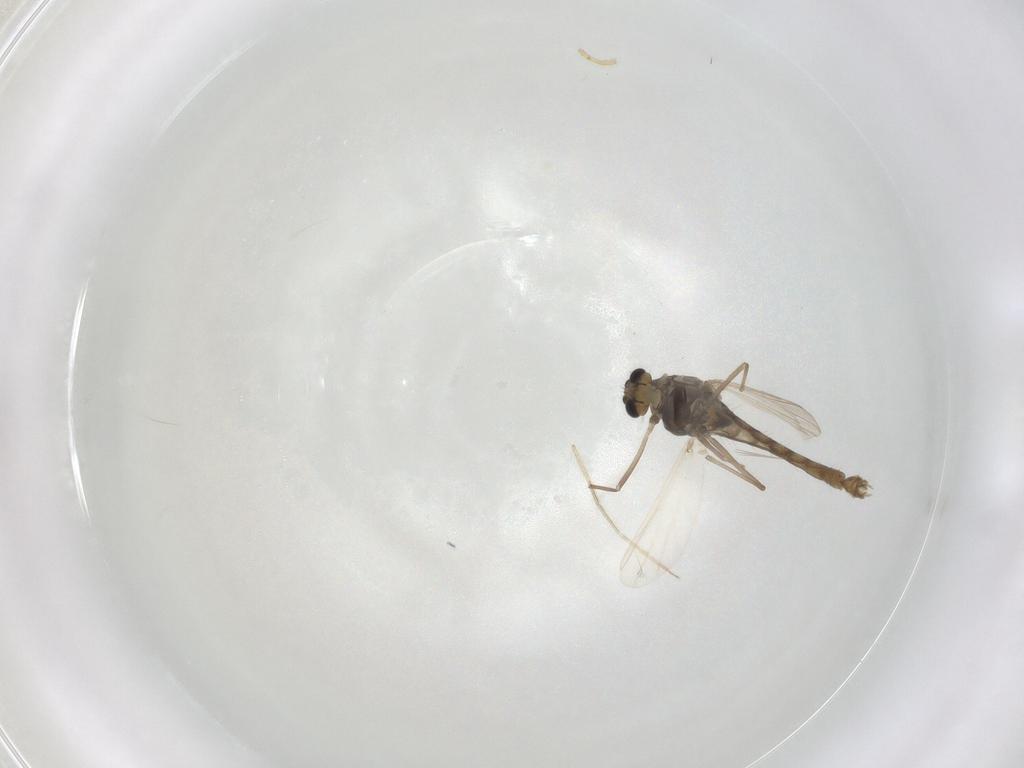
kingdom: Animalia
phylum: Arthropoda
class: Insecta
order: Diptera
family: Chironomidae
